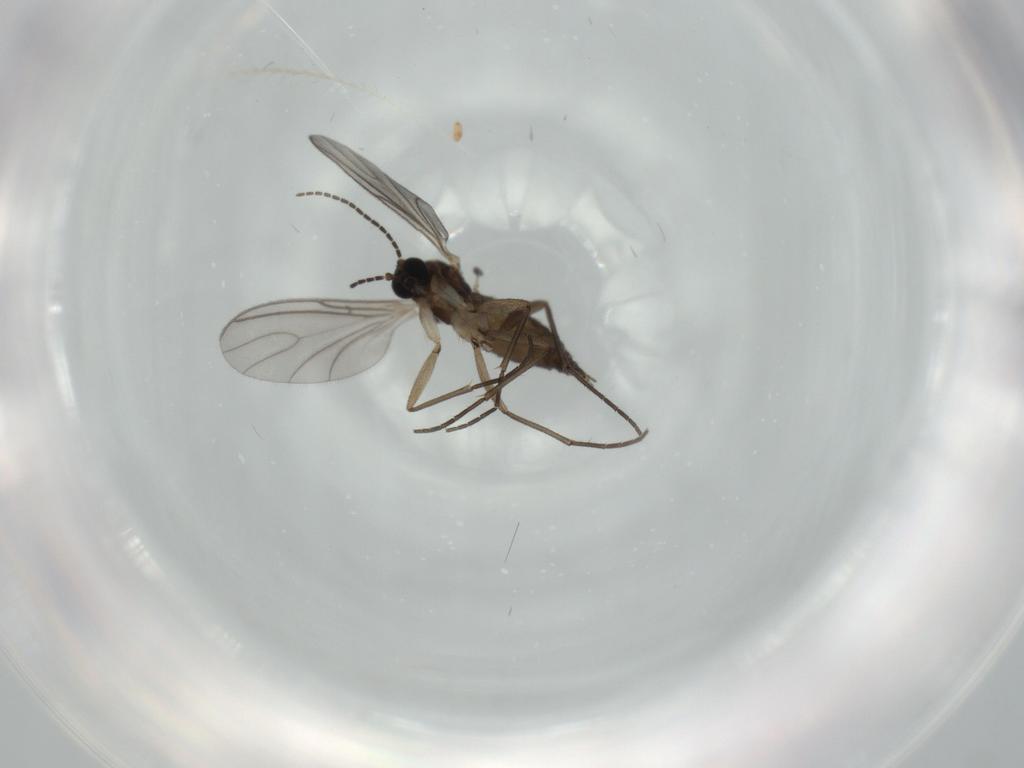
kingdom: Animalia
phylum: Arthropoda
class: Insecta
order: Diptera
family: Sciaridae
